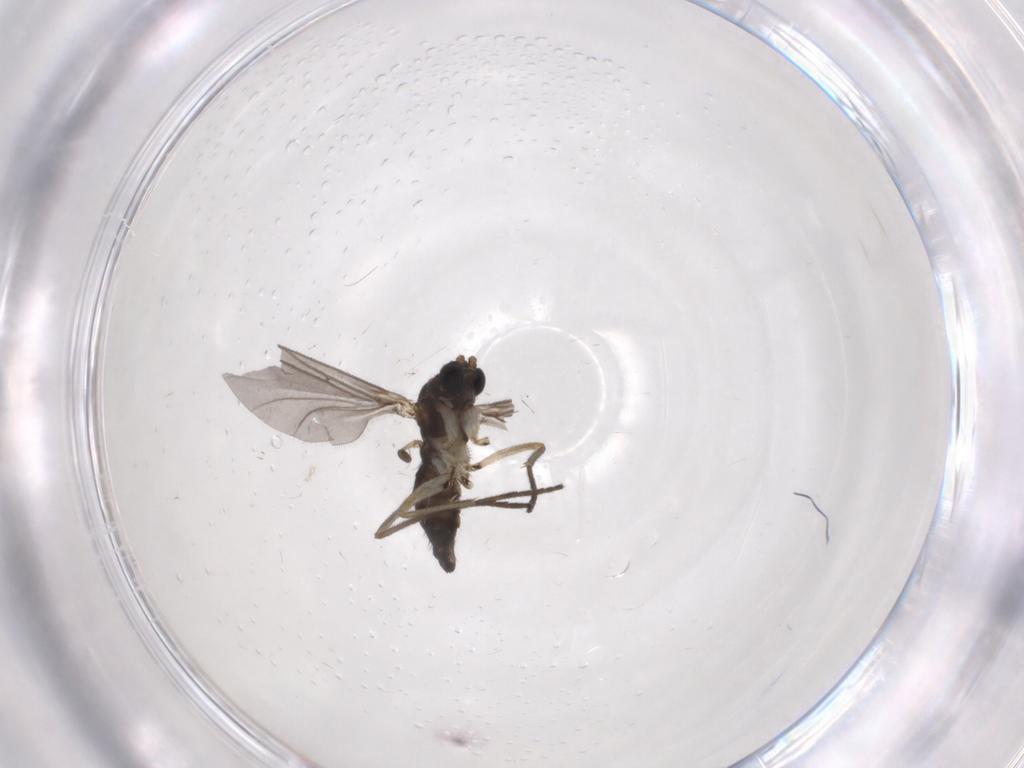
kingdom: Animalia
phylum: Arthropoda
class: Insecta
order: Diptera
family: Sciaridae
